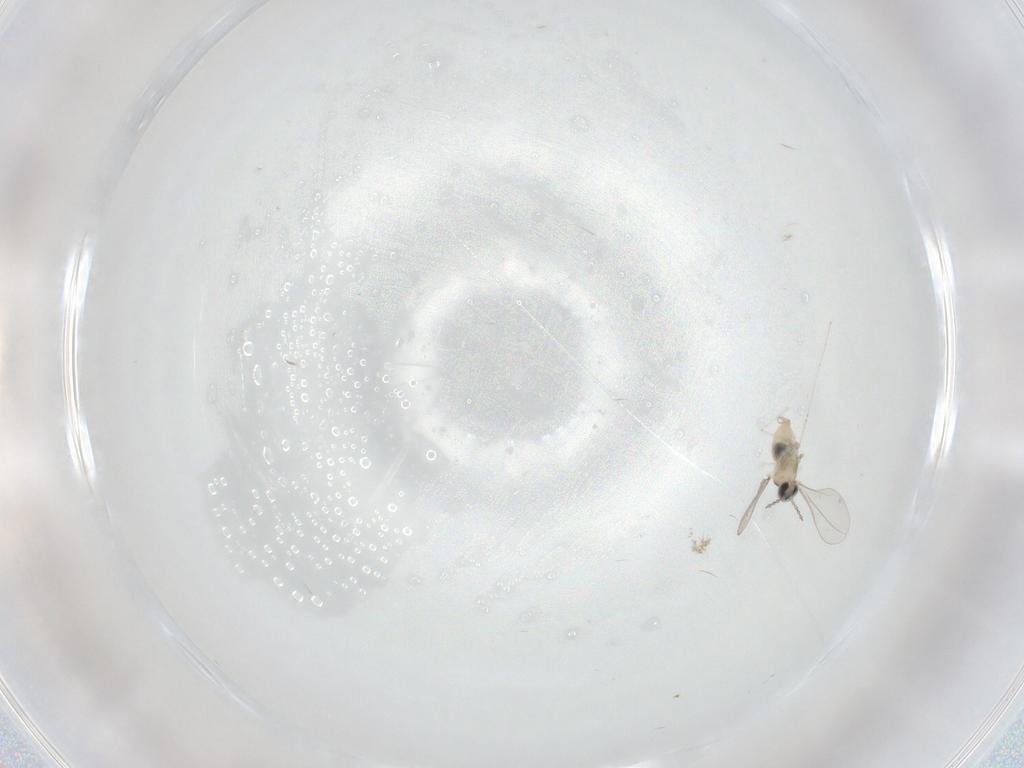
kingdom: Animalia
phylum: Arthropoda
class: Insecta
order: Diptera
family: Cecidomyiidae
